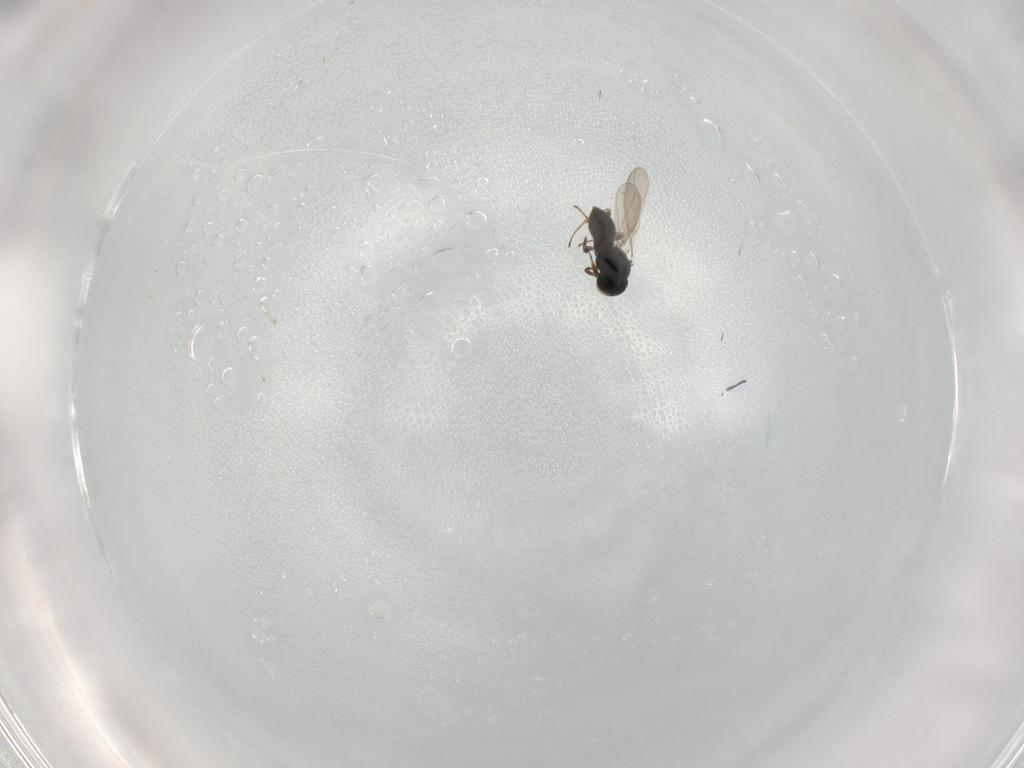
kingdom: Animalia
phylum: Arthropoda
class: Insecta
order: Hymenoptera
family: Platygastridae
